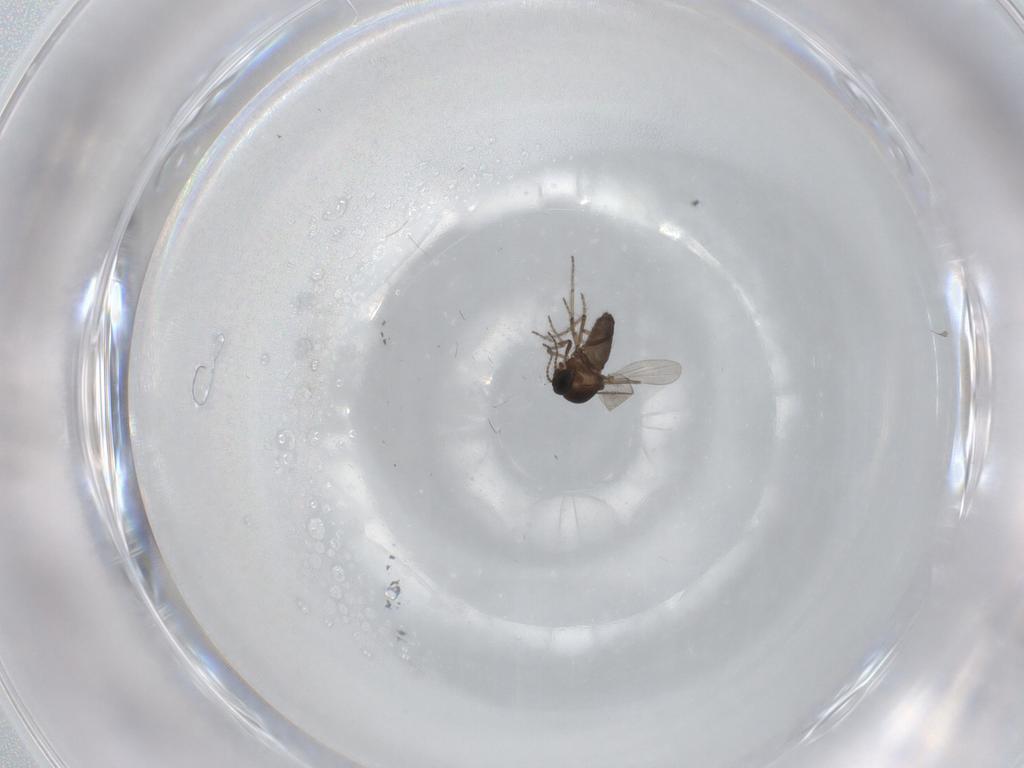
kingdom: Animalia
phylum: Arthropoda
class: Insecta
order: Diptera
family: Ceratopogonidae
